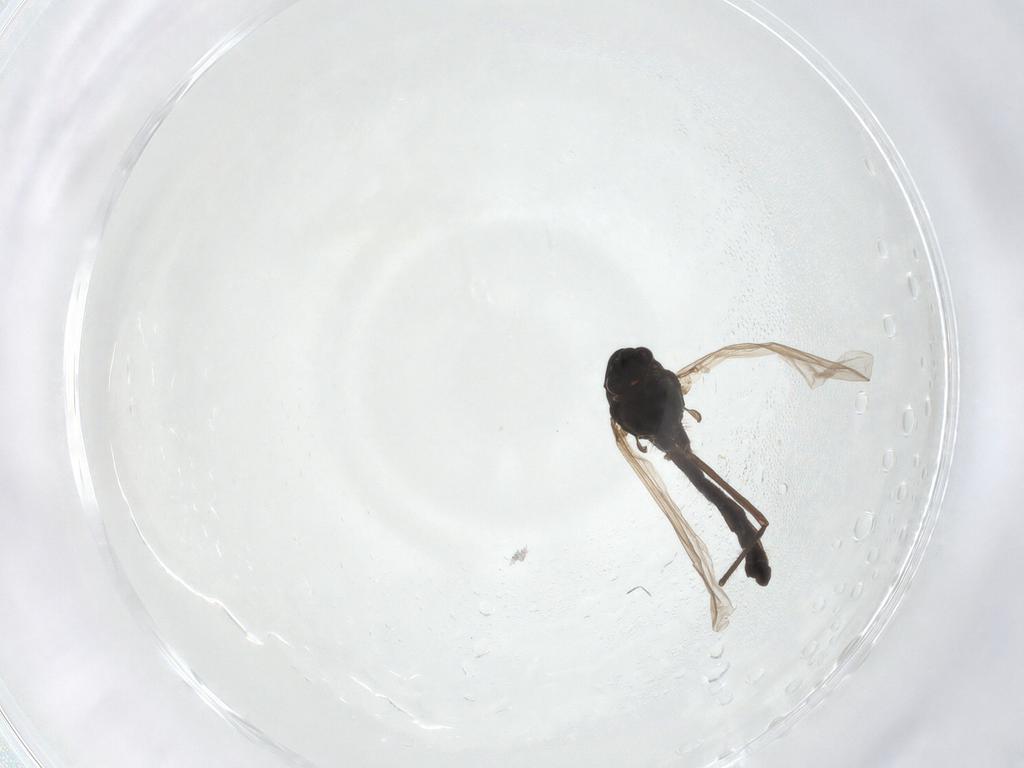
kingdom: Animalia
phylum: Arthropoda
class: Insecta
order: Diptera
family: Chironomidae
